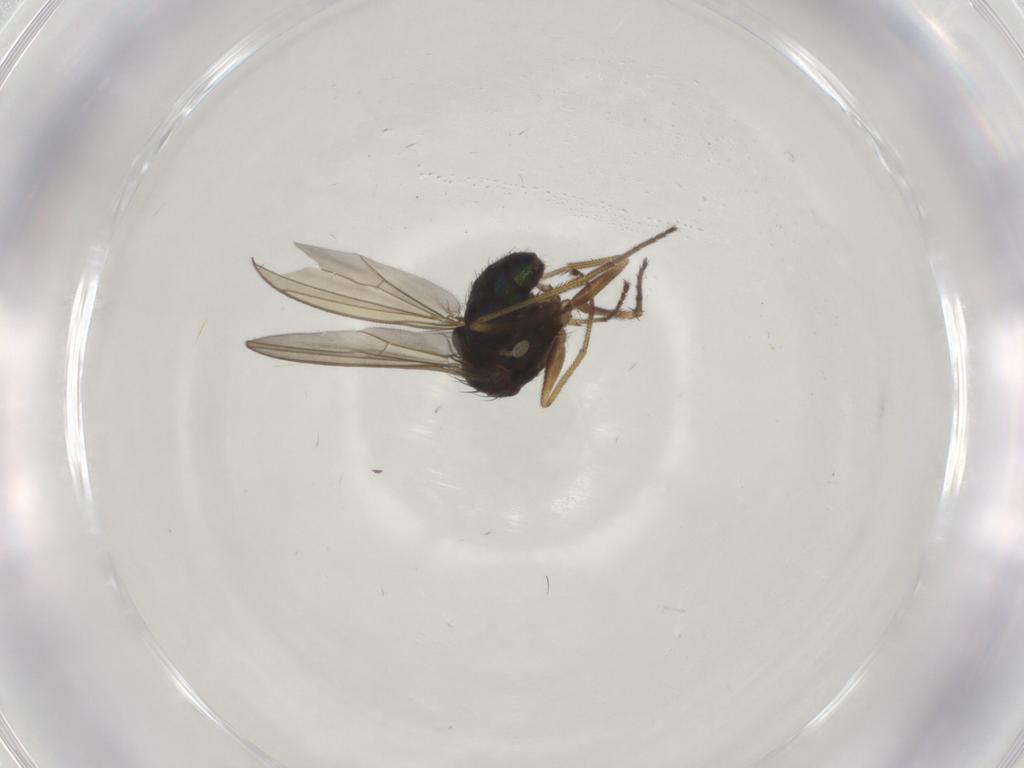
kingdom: Animalia
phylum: Arthropoda
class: Insecta
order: Diptera
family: Dolichopodidae
